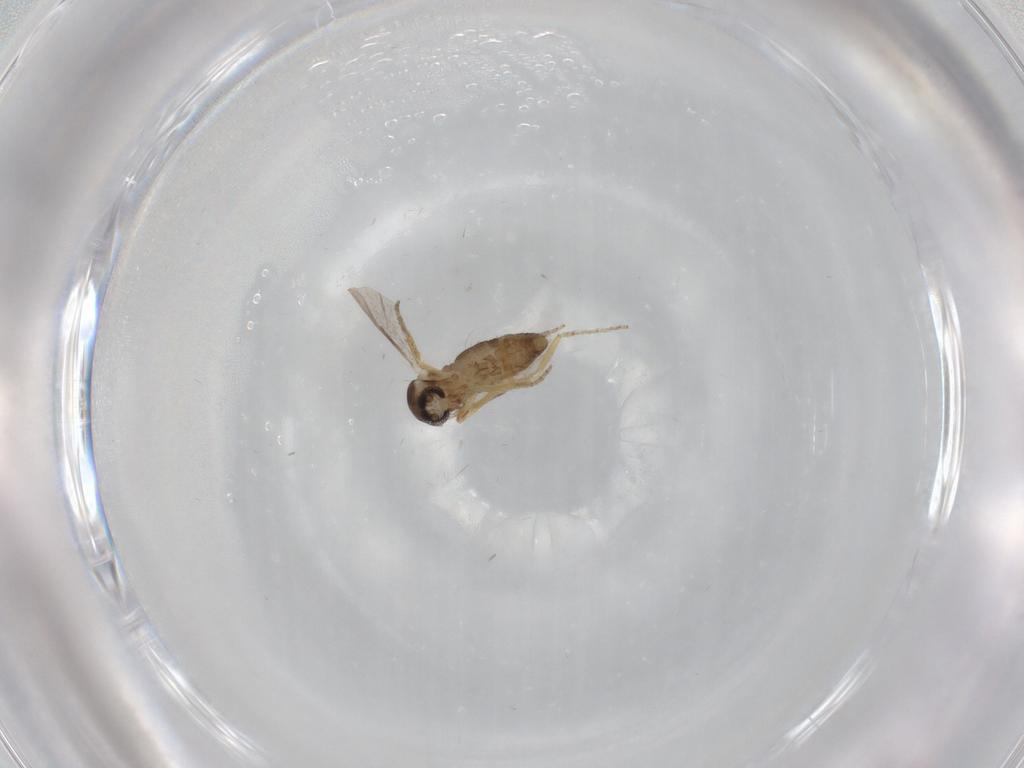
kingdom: Animalia
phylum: Arthropoda
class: Insecta
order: Diptera
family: Ceratopogonidae
